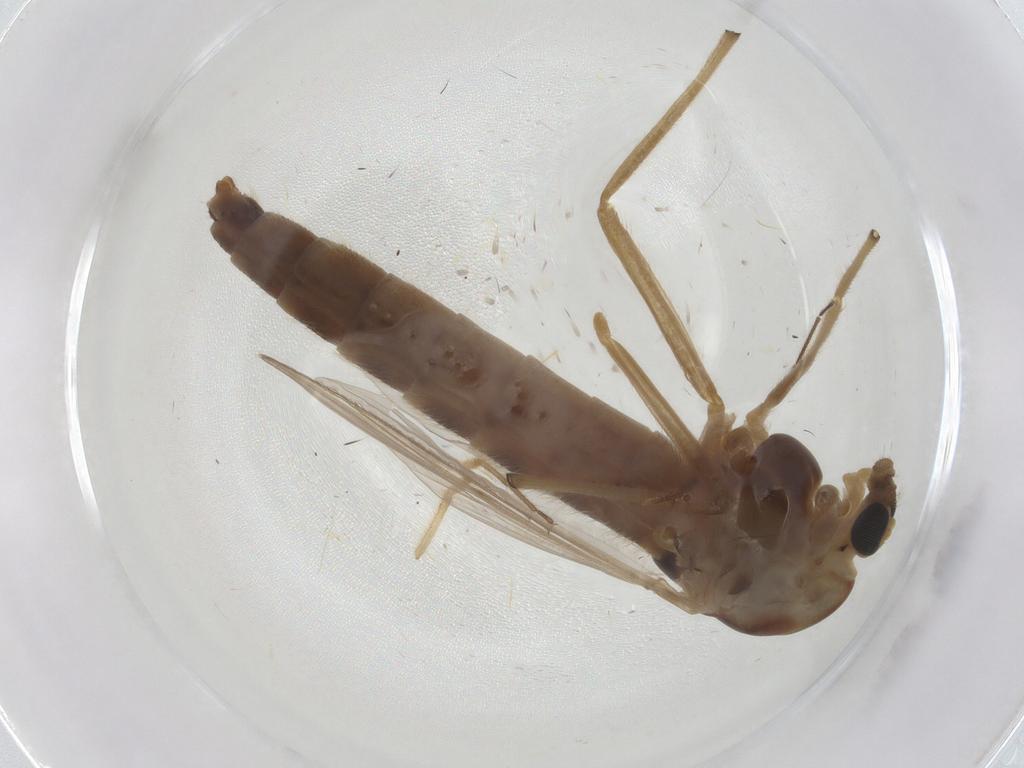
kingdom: Animalia
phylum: Arthropoda
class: Insecta
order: Diptera
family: Chironomidae
